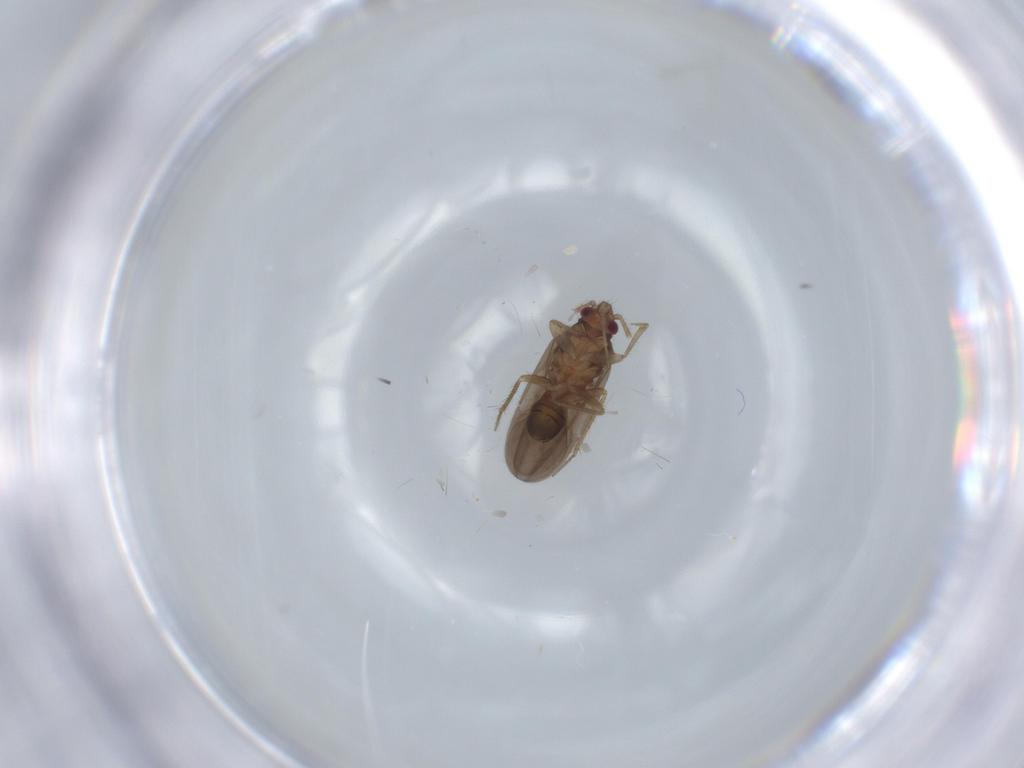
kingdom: Animalia
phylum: Arthropoda
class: Insecta
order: Hemiptera
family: Ceratocombidae
